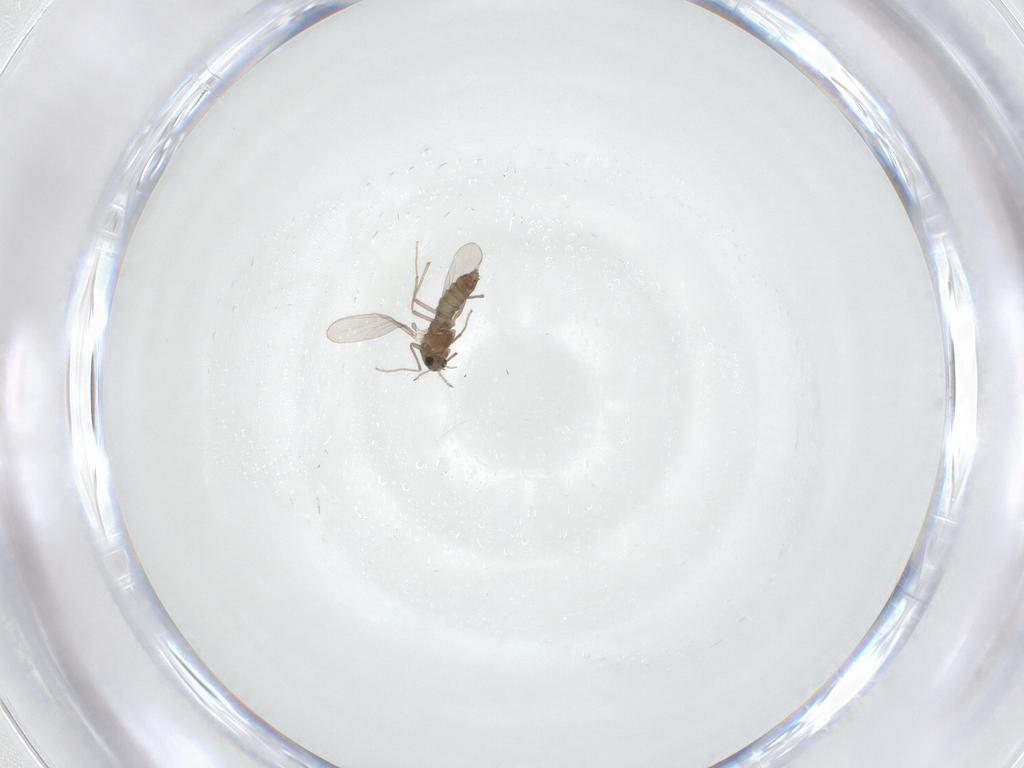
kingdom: Animalia
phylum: Arthropoda
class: Insecta
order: Diptera
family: Chironomidae
